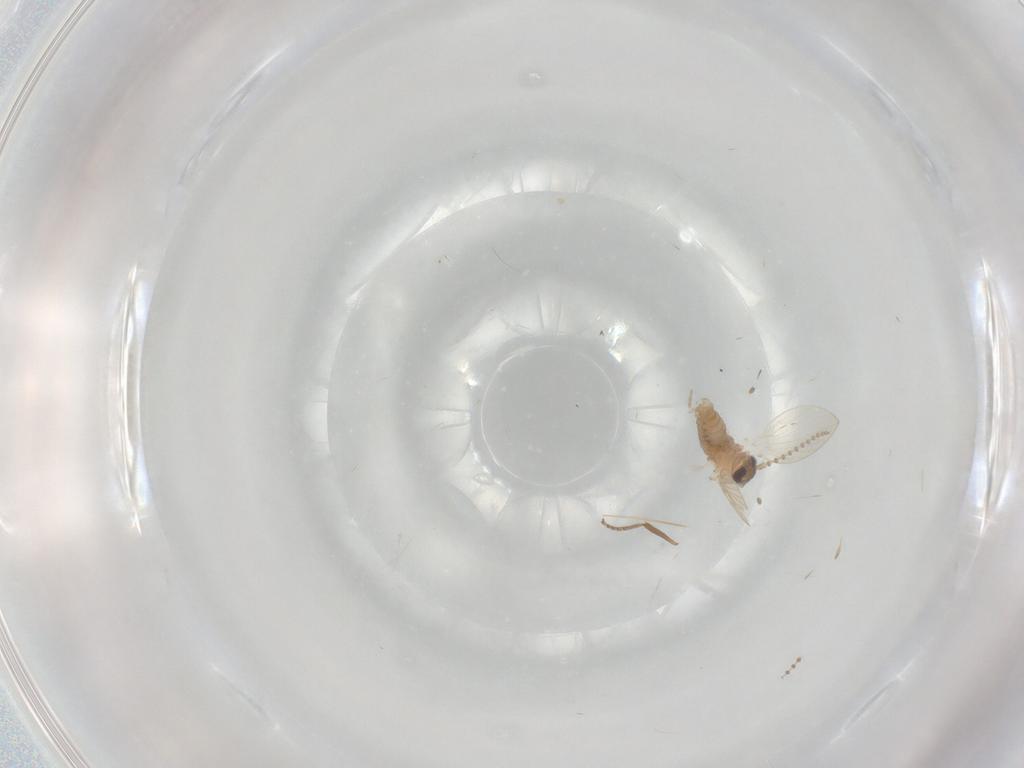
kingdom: Animalia
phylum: Arthropoda
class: Insecta
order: Diptera
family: Psychodidae
